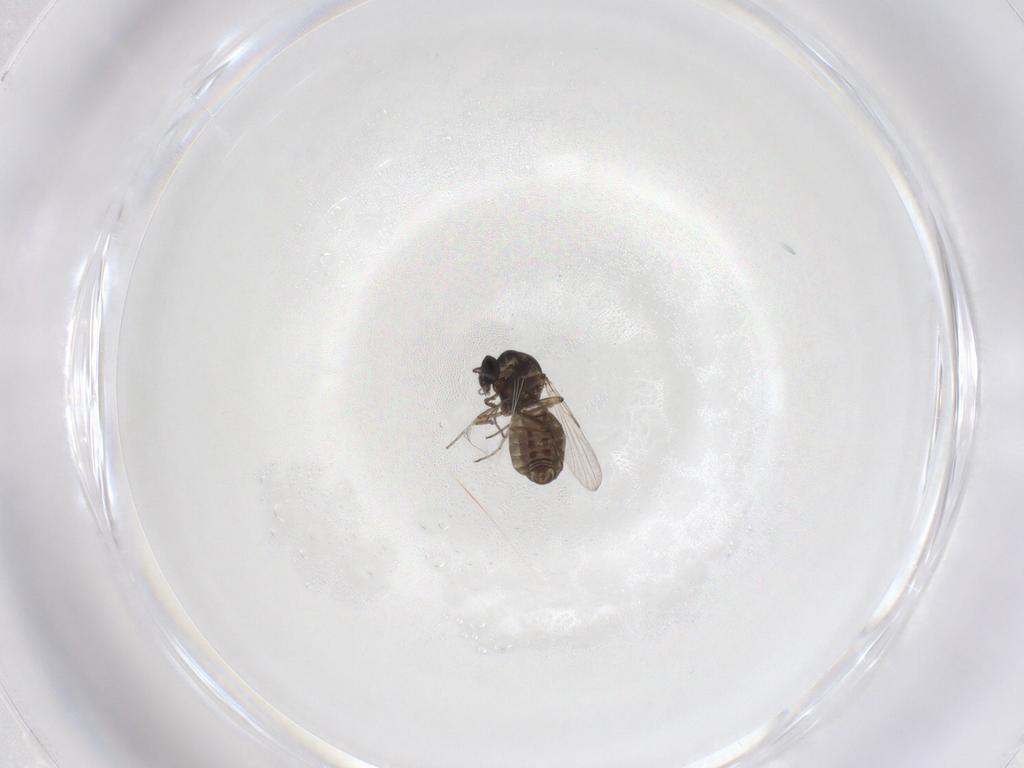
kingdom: Animalia
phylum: Arthropoda
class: Insecta
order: Diptera
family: Ceratopogonidae
